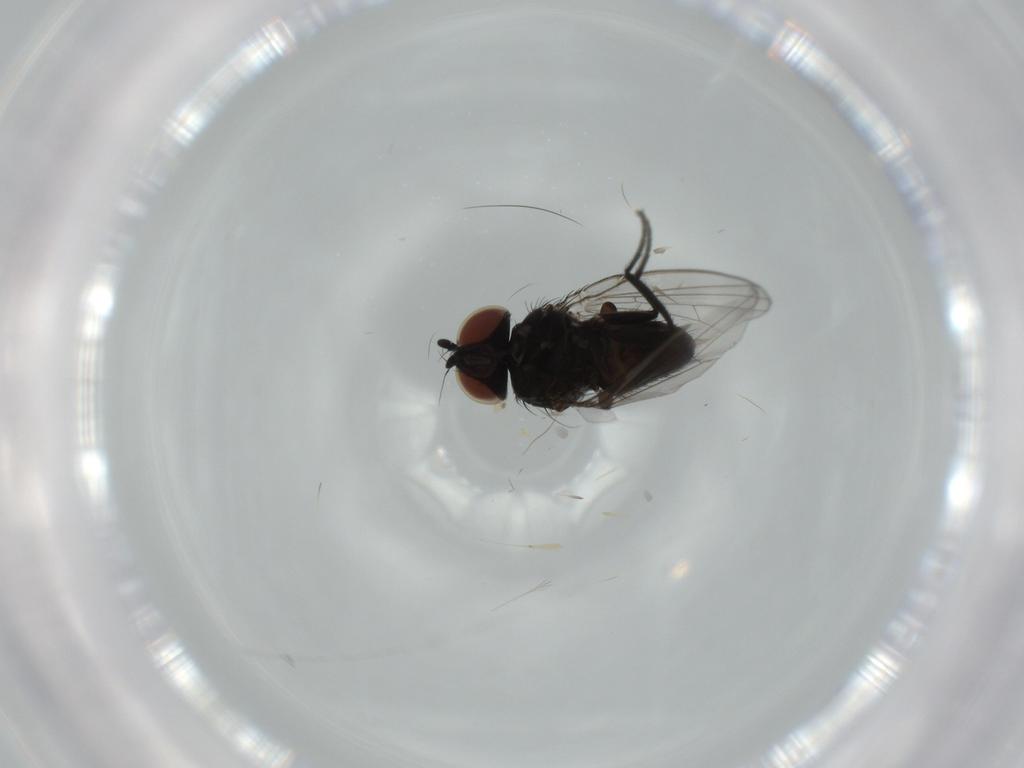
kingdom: Animalia
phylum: Arthropoda
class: Insecta
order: Diptera
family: Milichiidae
